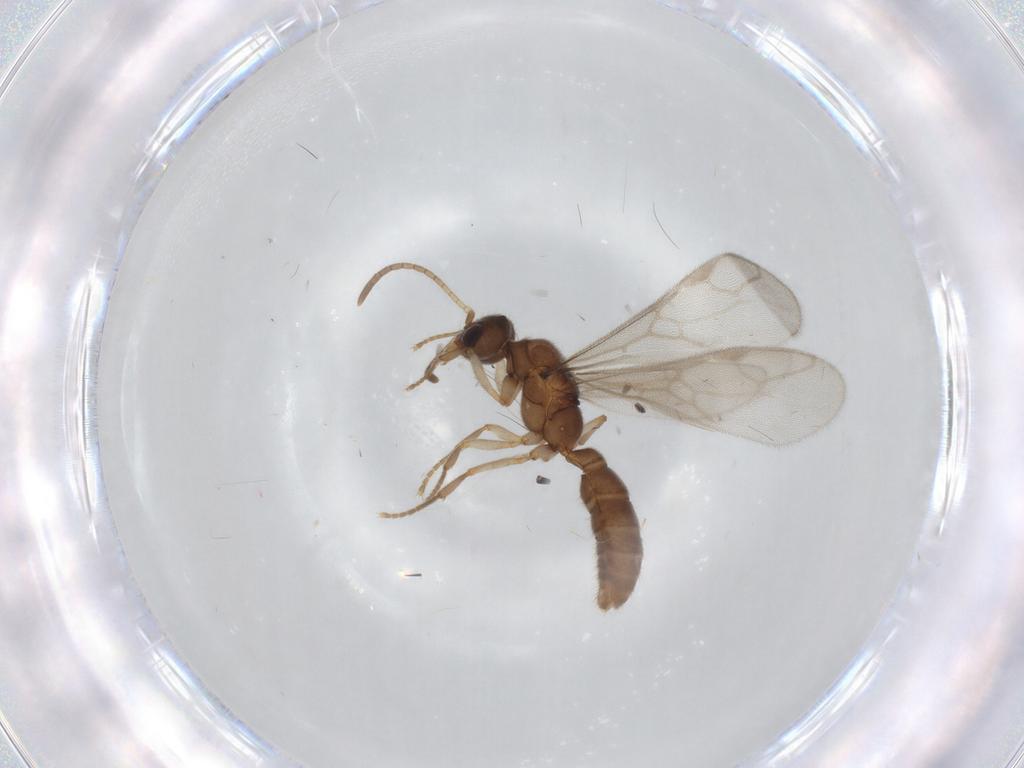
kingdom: Animalia
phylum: Arthropoda
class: Insecta
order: Hymenoptera
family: Formicidae
